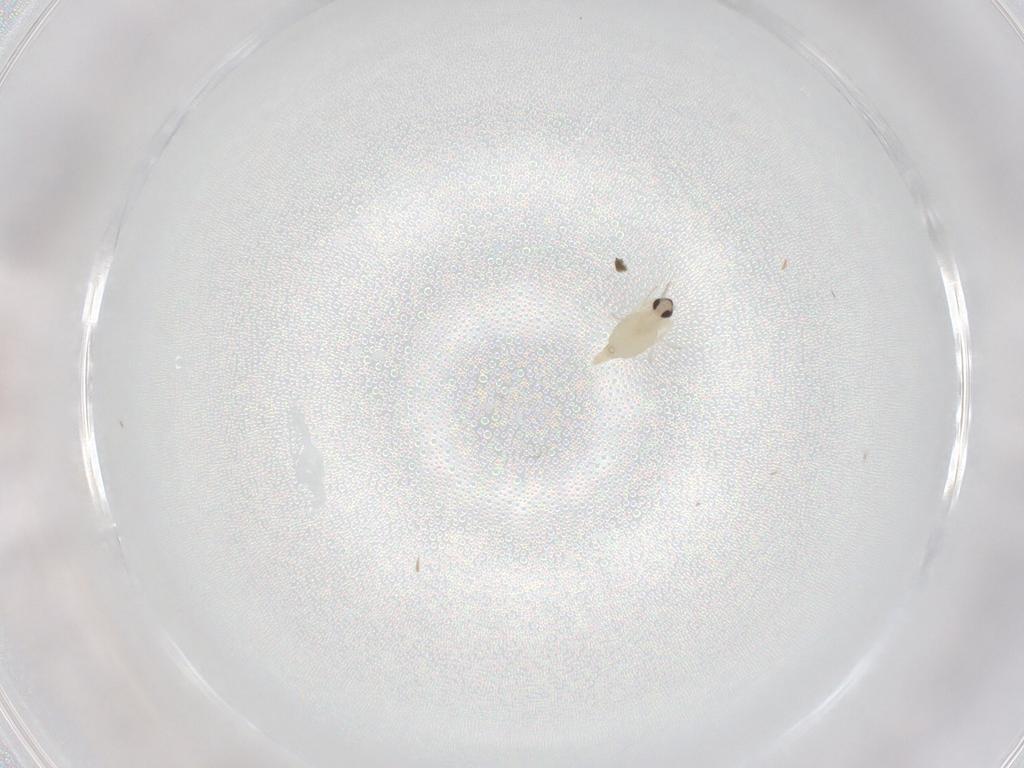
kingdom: Animalia
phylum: Arthropoda
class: Insecta
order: Diptera
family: Cecidomyiidae
